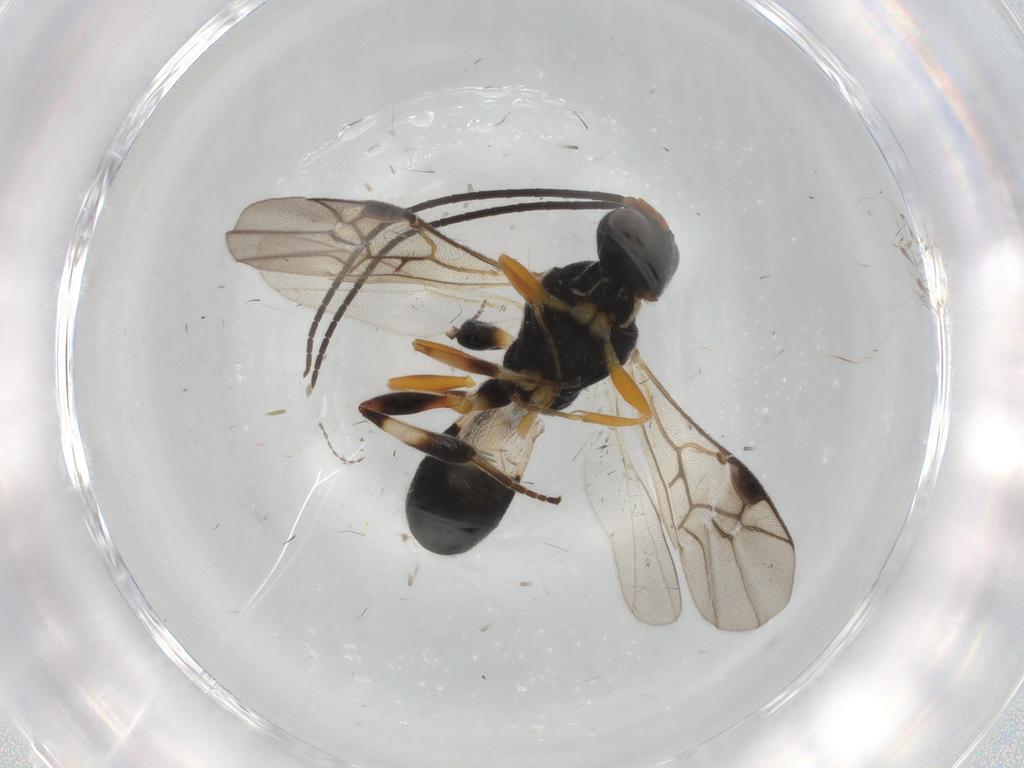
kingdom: Animalia
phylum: Arthropoda
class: Insecta
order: Hymenoptera
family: Braconidae
